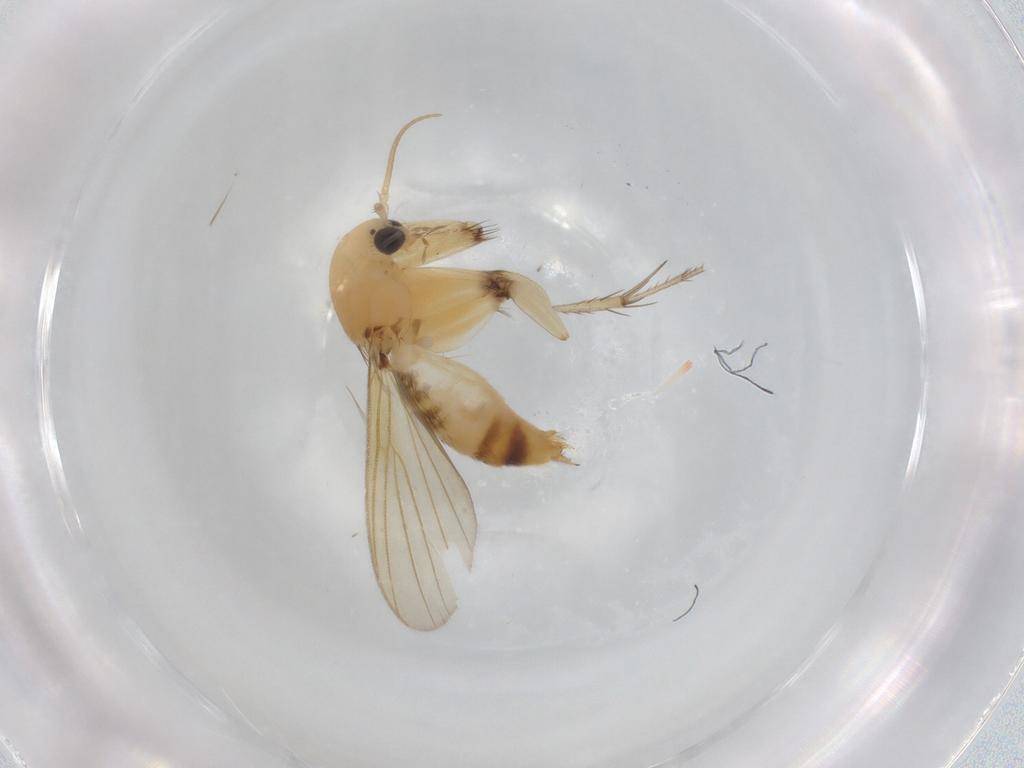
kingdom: Animalia
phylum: Arthropoda
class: Insecta
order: Diptera
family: Mycetophilidae
